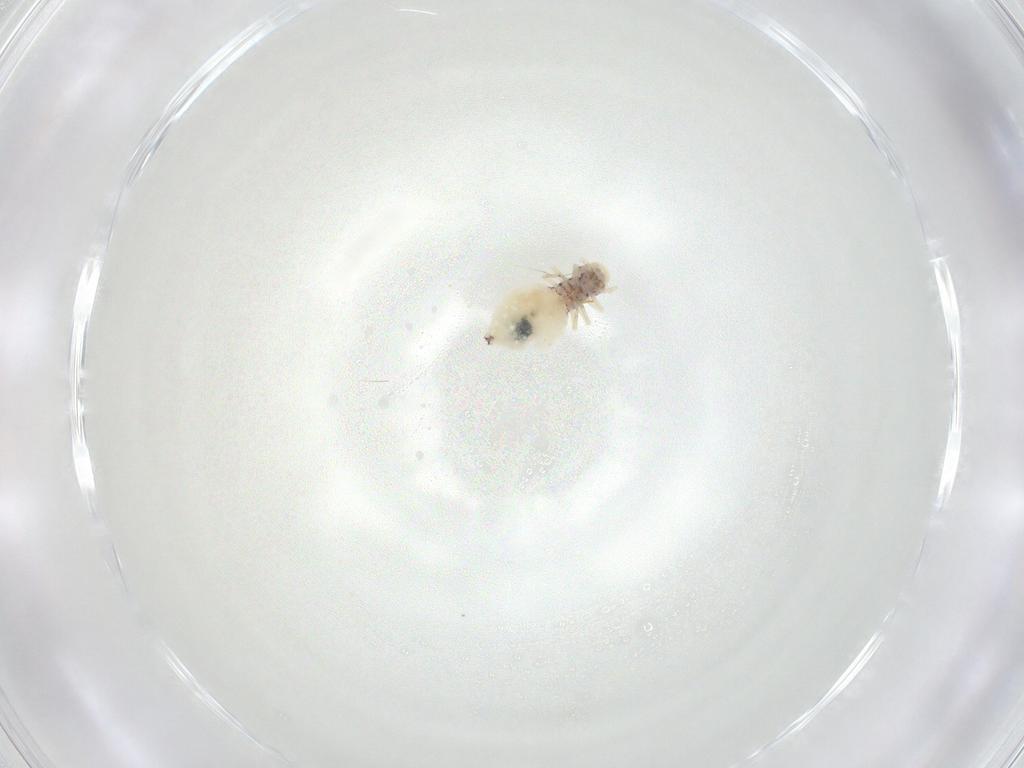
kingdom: Animalia
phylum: Arthropoda
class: Insecta
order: Psocodea
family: Amphipsocidae
